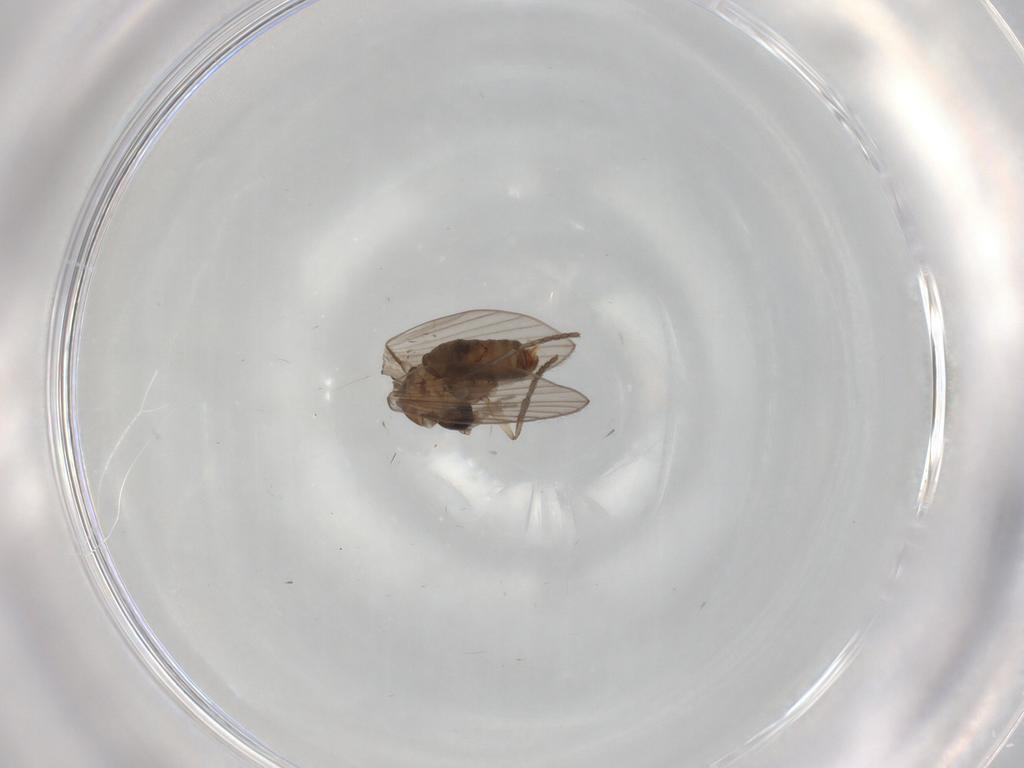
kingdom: Animalia
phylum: Arthropoda
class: Insecta
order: Diptera
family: Psychodidae
